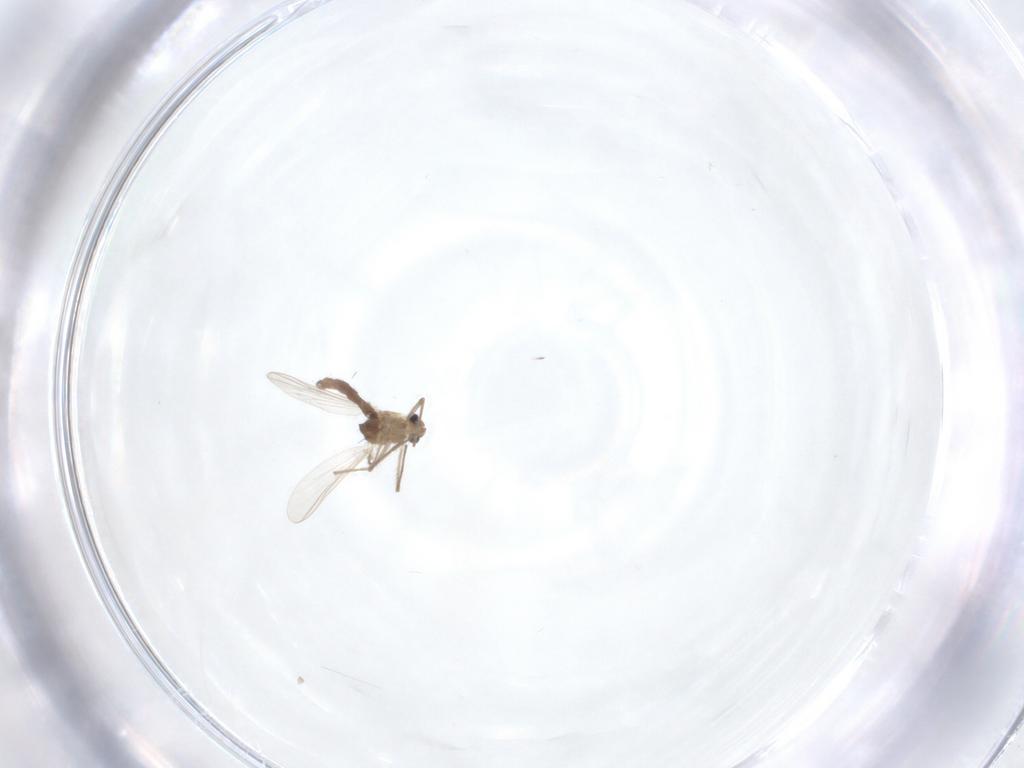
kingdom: Animalia
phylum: Arthropoda
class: Insecta
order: Diptera
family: Chironomidae
